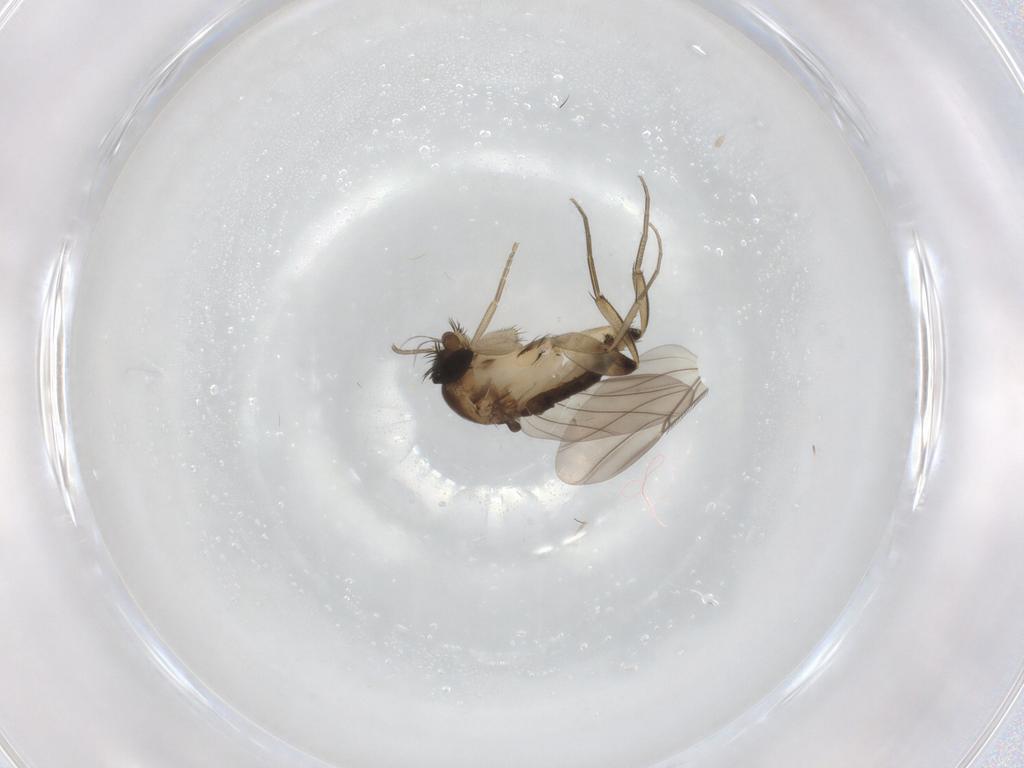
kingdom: Animalia
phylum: Arthropoda
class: Insecta
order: Diptera
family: Phoridae
